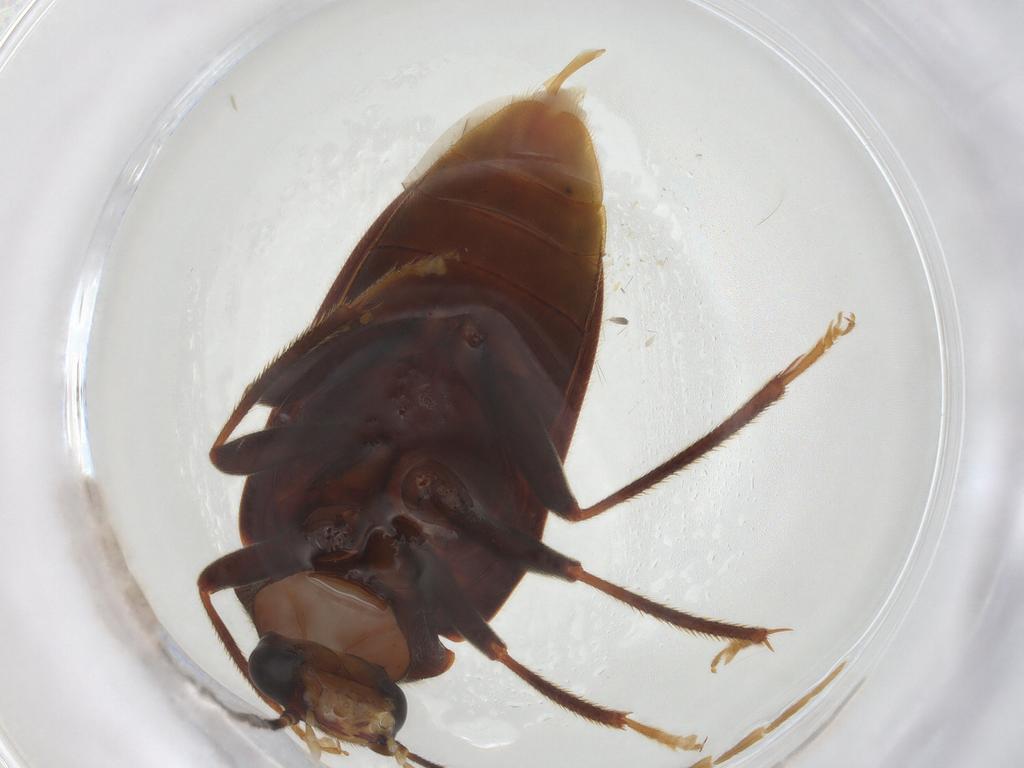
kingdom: Animalia
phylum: Arthropoda
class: Insecta
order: Coleoptera
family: Ptilodactylidae
